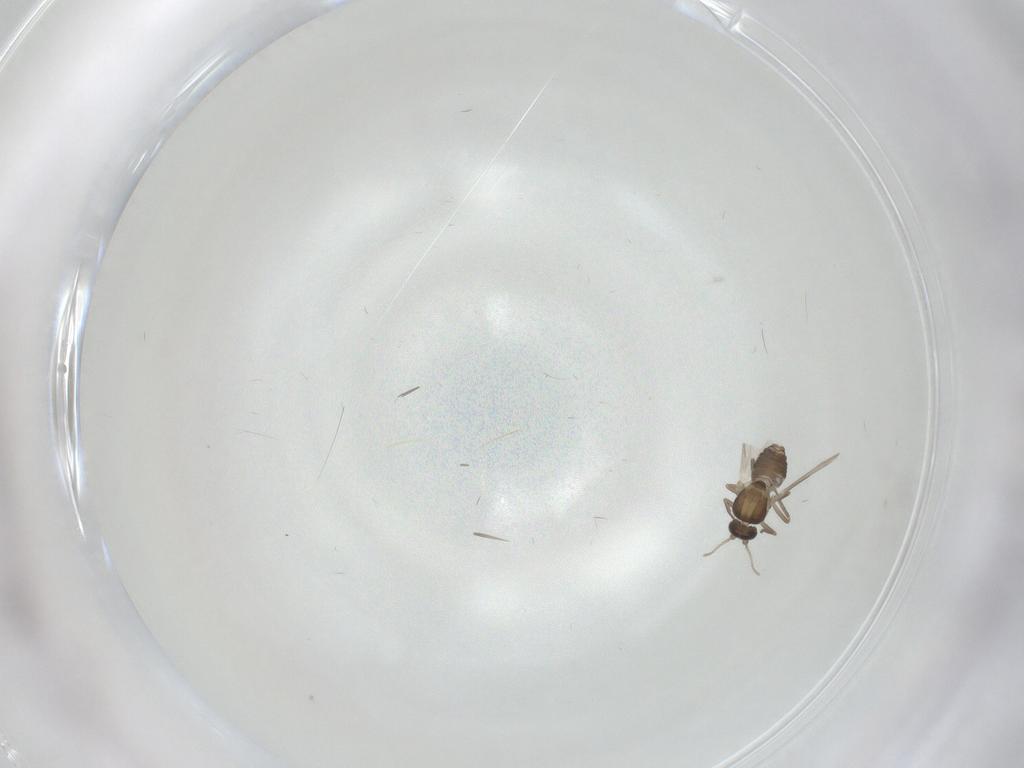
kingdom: Animalia
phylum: Arthropoda
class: Insecta
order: Diptera
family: Ceratopogonidae
